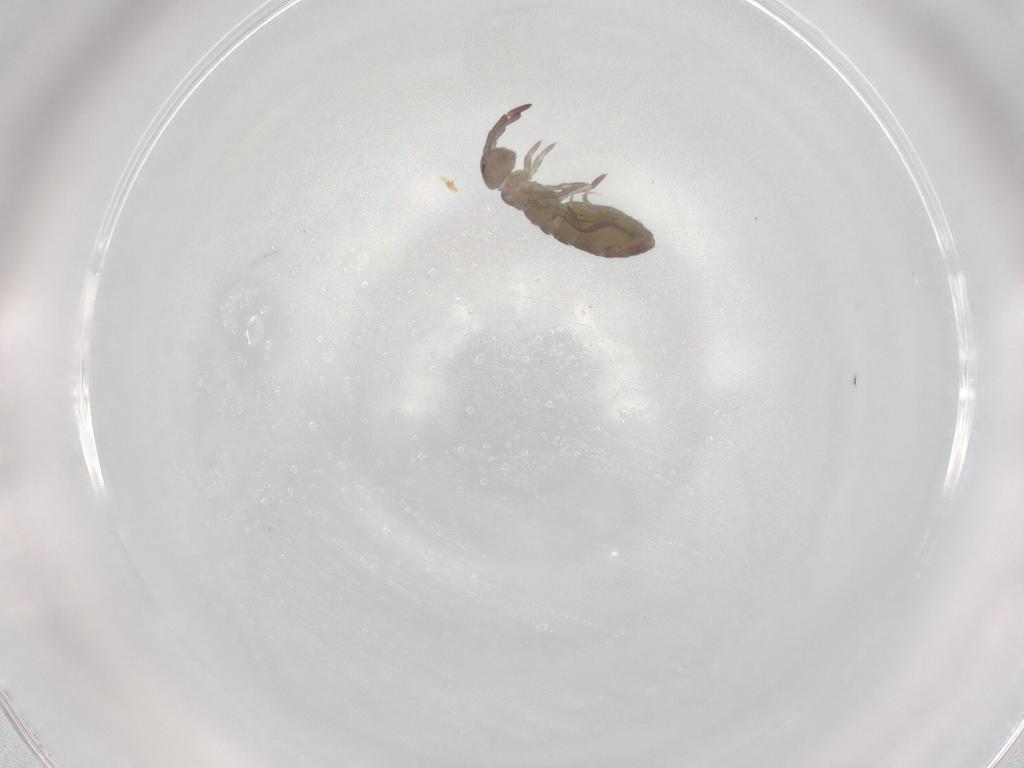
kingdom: Animalia
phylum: Arthropoda
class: Collembola
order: Entomobryomorpha
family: Isotomidae
